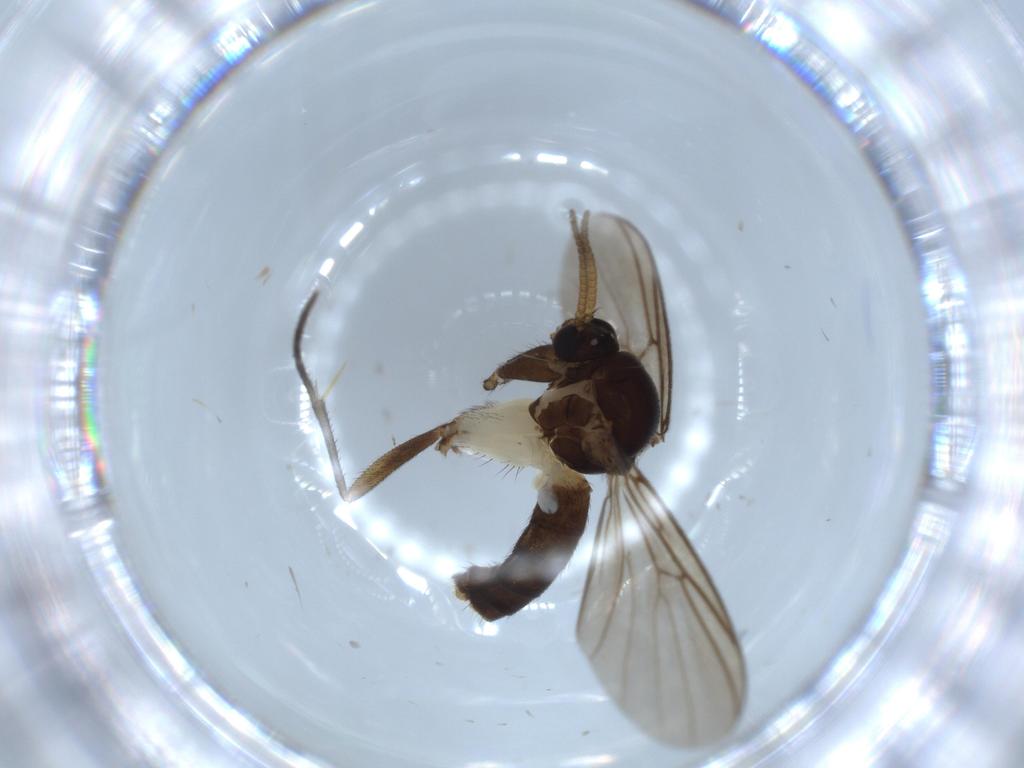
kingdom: Animalia
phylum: Arthropoda
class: Insecta
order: Diptera
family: Mycetophilidae
